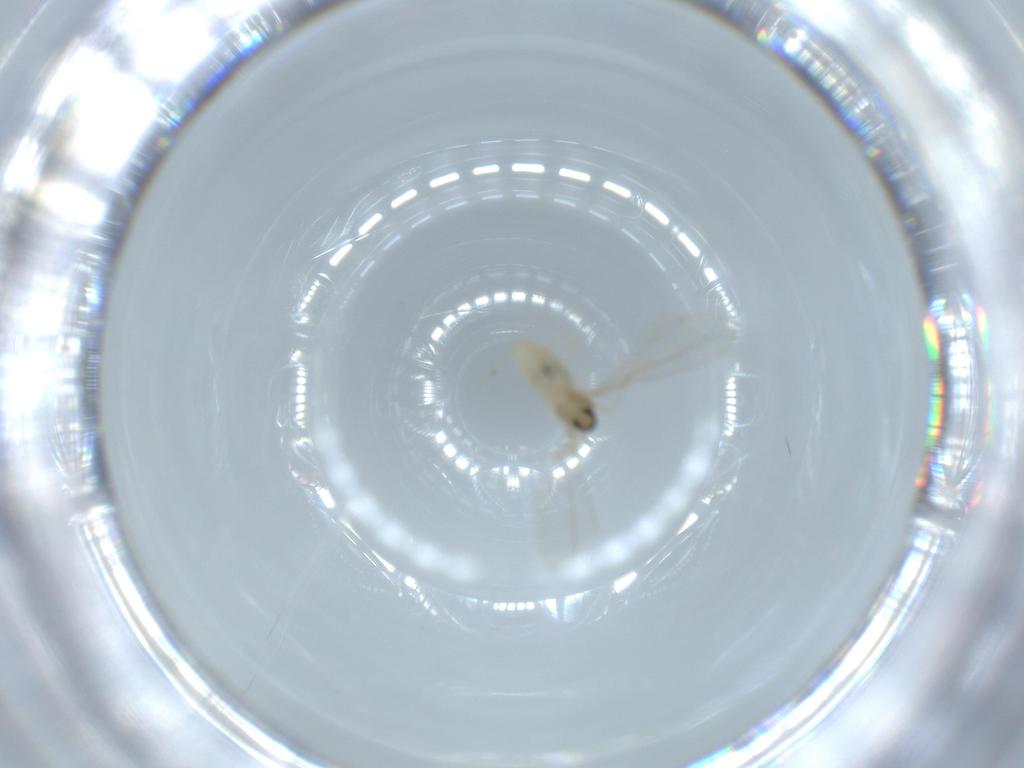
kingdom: Animalia
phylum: Arthropoda
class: Insecta
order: Diptera
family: Cecidomyiidae
